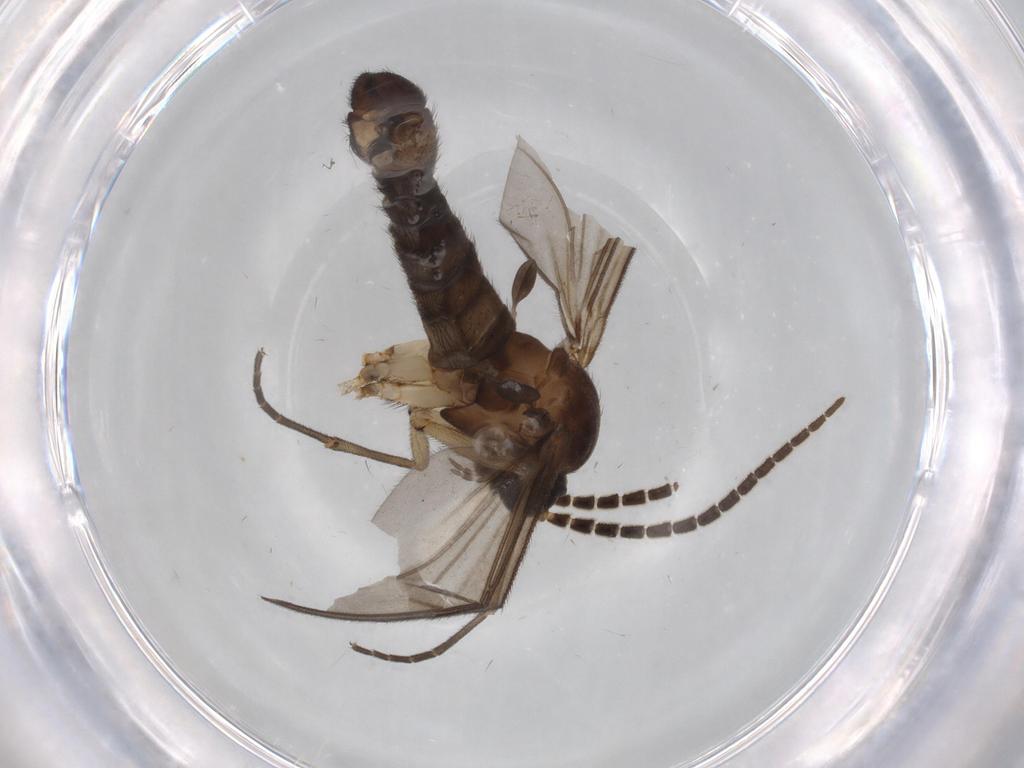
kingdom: Animalia
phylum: Arthropoda
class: Insecta
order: Diptera
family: Cecidomyiidae
